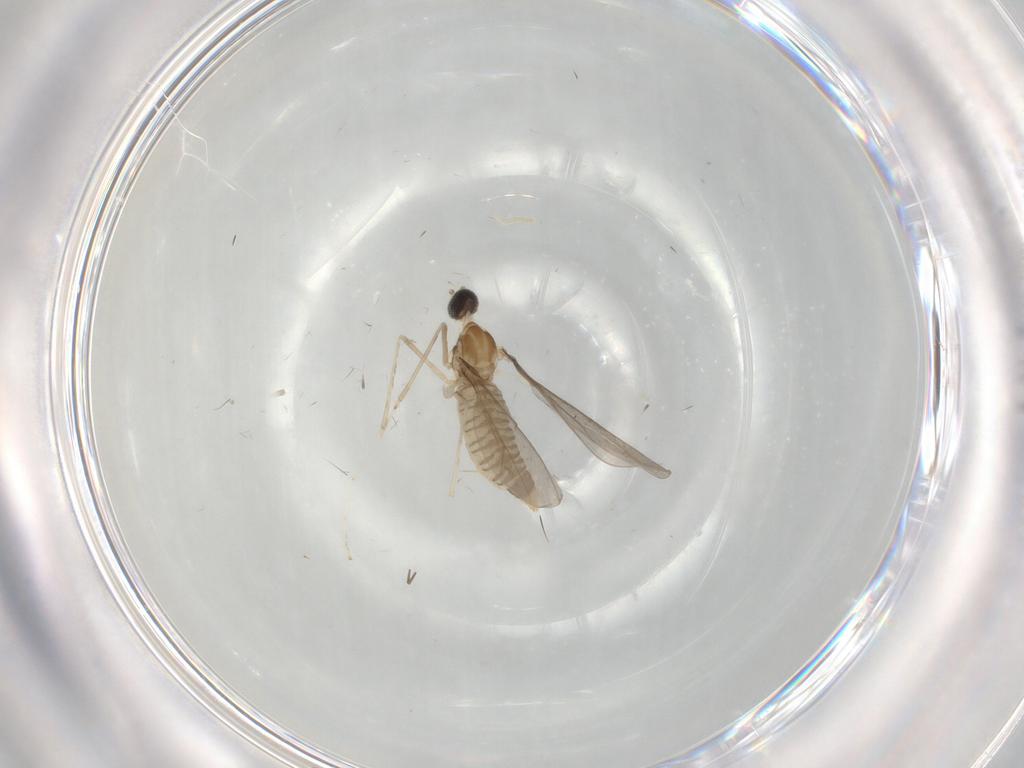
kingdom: Animalia
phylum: Arthropoda
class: Insecta
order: Diptera
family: Cecidomyiidae
